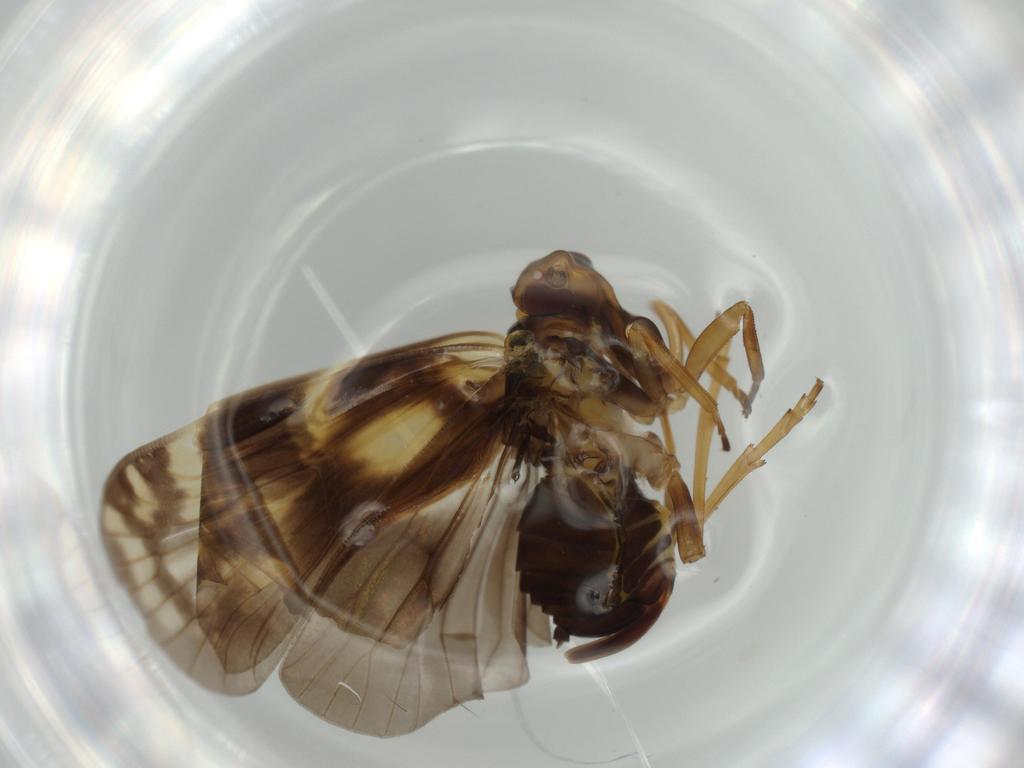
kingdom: Animalia
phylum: Arthropoda
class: Insecta
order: Hemiptera
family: Cixiidae
